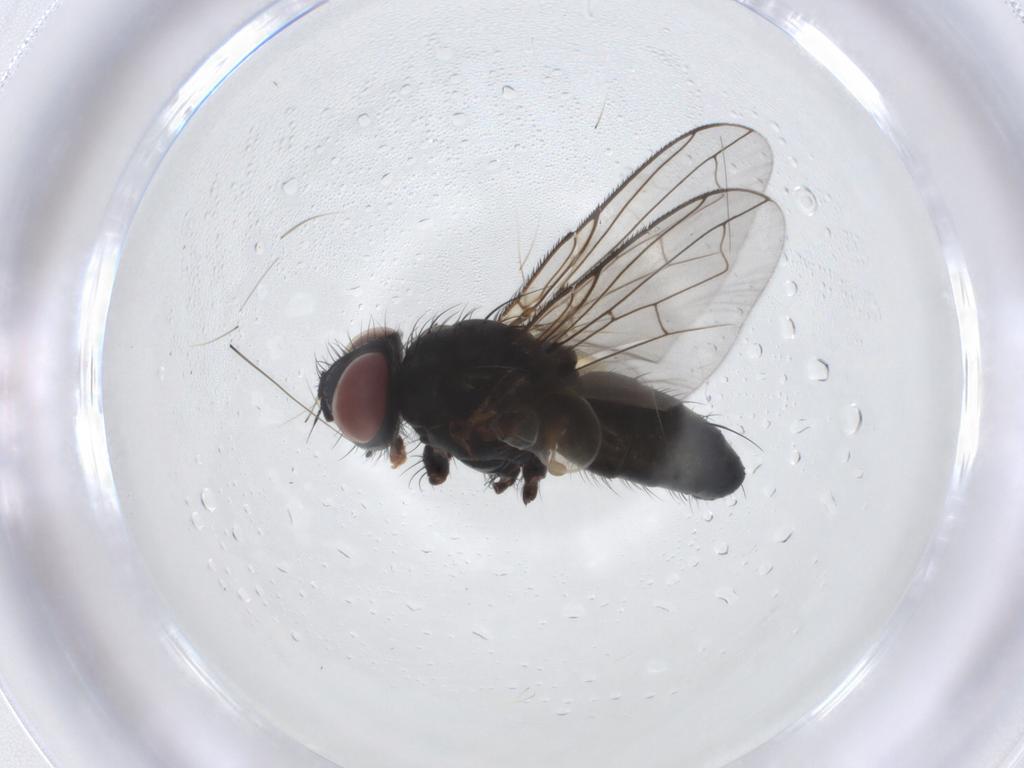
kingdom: Animalia
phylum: Arthropoda
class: Insecta
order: Diptera
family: Tachinidae
